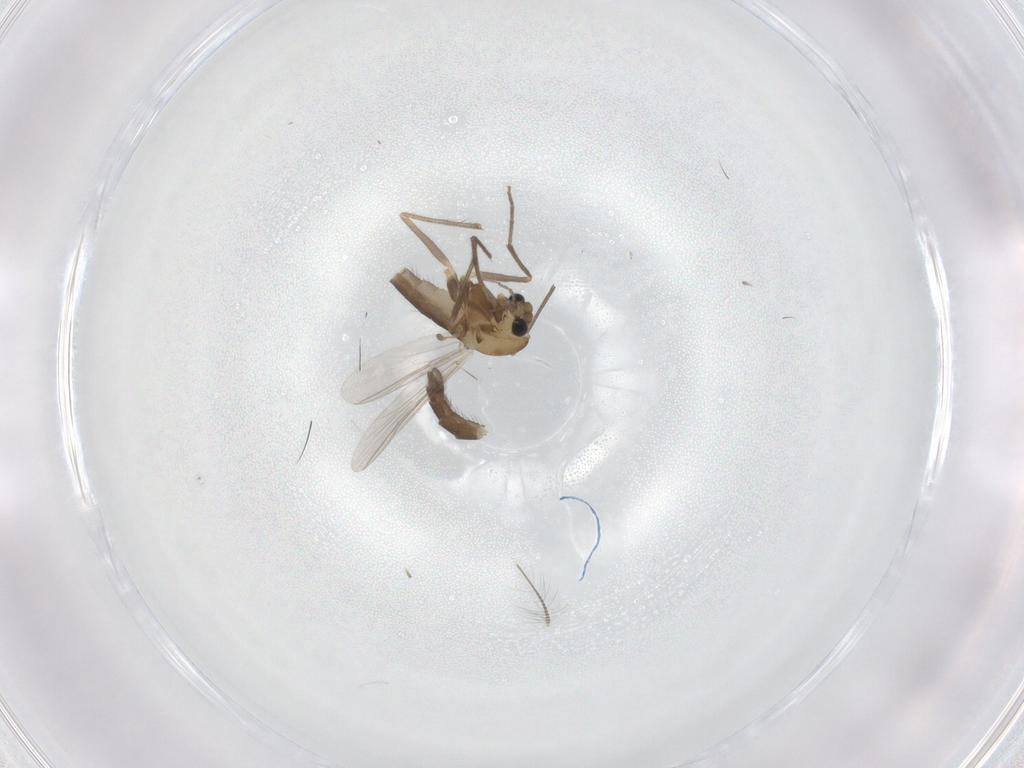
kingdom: Animalia
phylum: Arthropoda
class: Insecta
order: Diptera
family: Chironomidae
